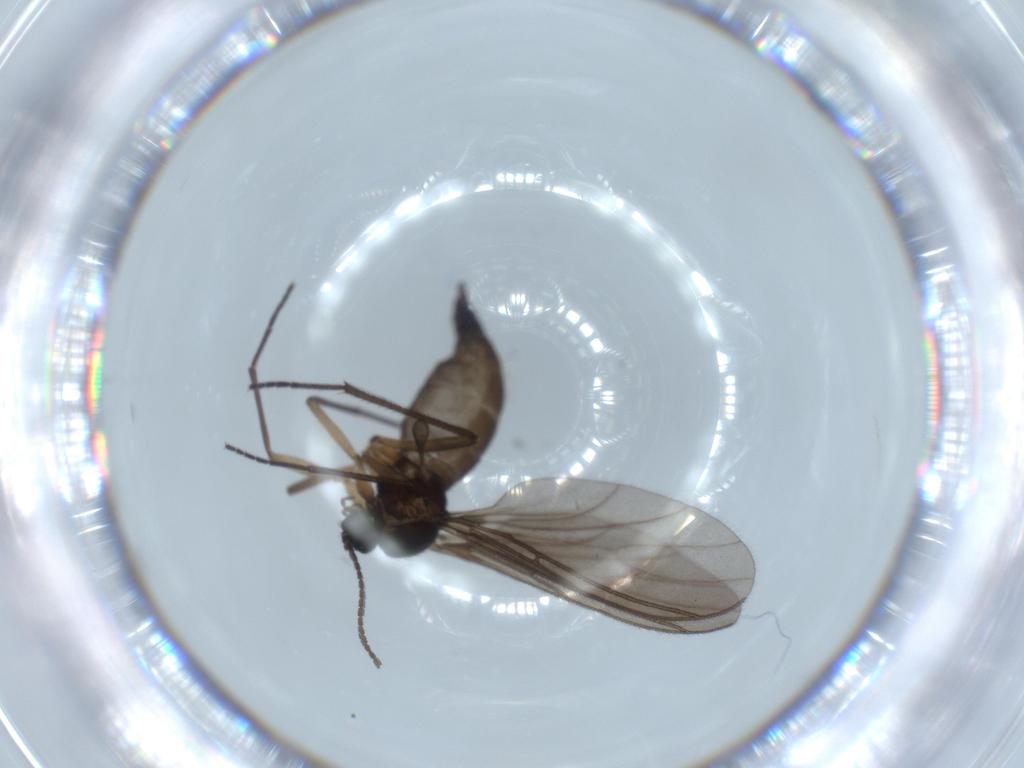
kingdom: Animalia
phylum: Arthropoda
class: Insecta
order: Diptera
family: Sciaridae
